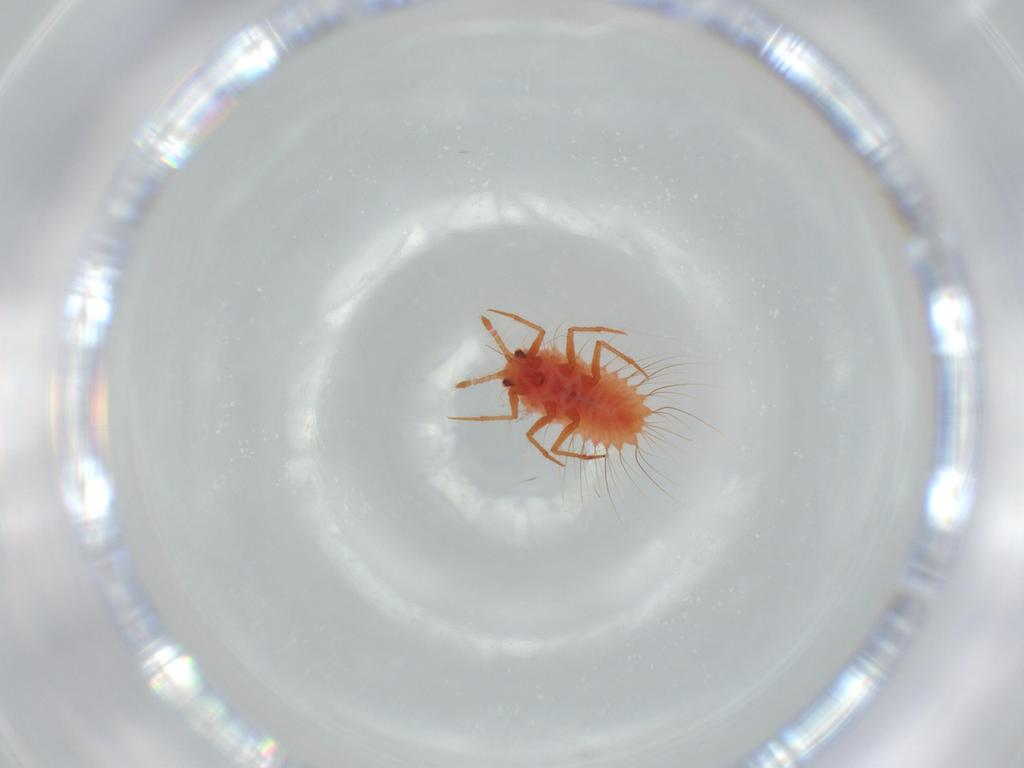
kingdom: Animalia
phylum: Arthropoda
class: Insecta
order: Hemiptera
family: Monophlebidae
